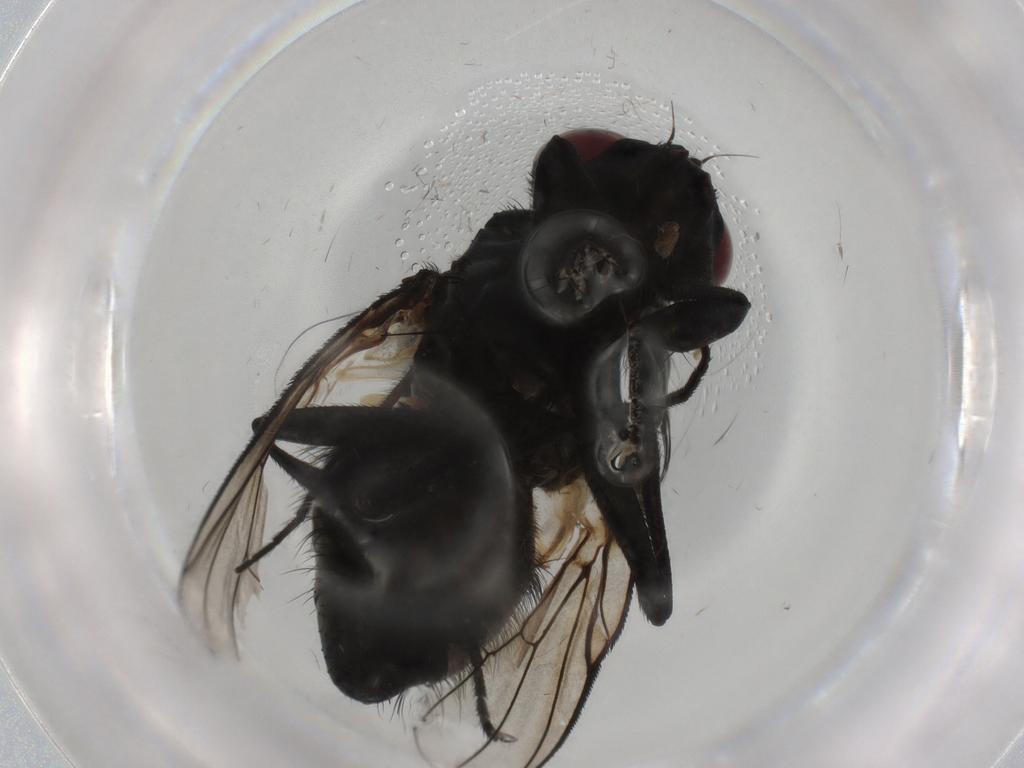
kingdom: Animalia
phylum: Arthropoda
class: Insecta
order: Diptera
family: Muscidae
